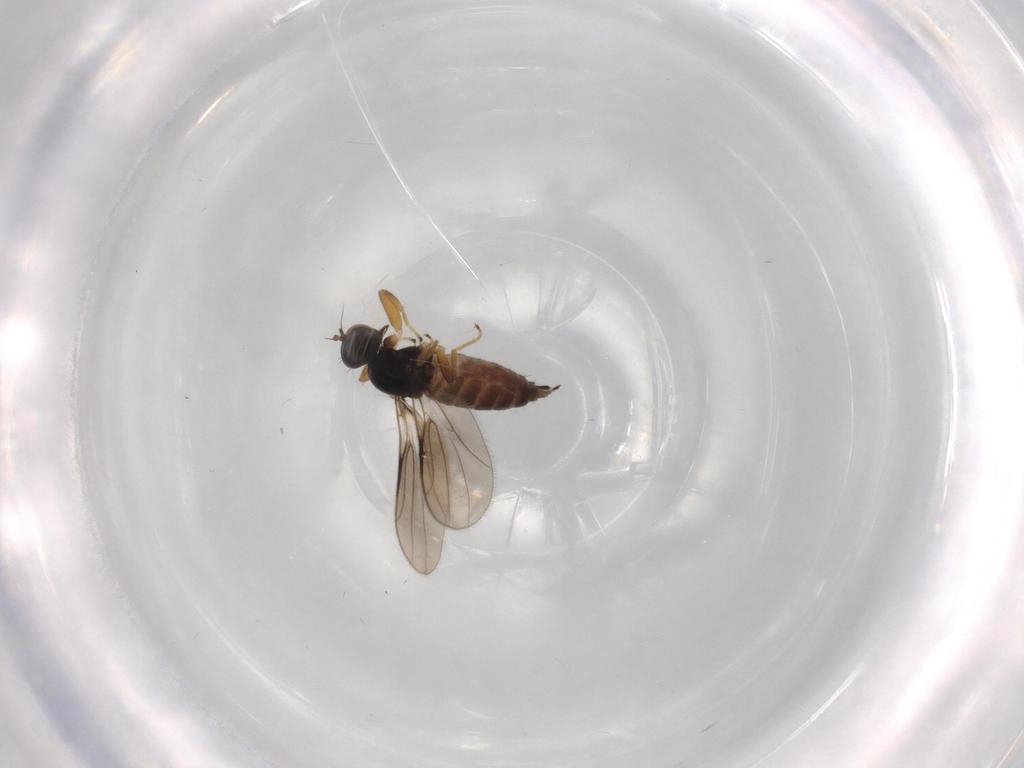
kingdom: Animalia
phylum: Arthropoda
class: Insecta
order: Diptera
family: Hybotidae
